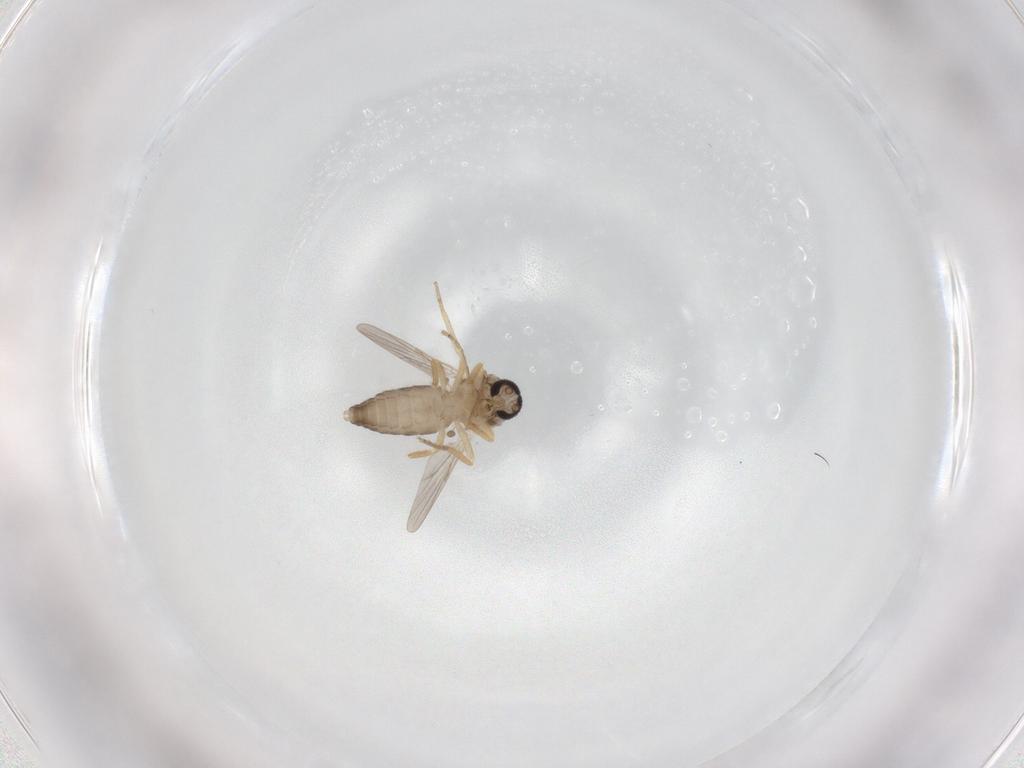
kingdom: Animalia
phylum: Arthropoda
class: Insecta
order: Diptera
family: Ceratopogonidae
